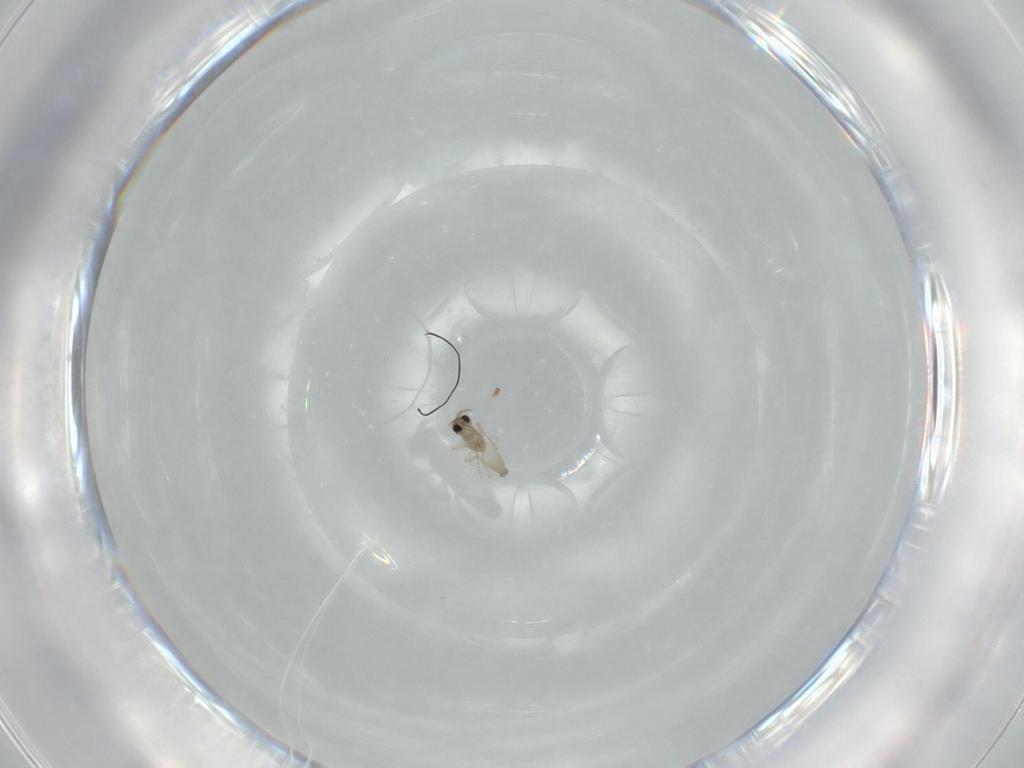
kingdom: Animalia
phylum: Arthropoda
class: Insecta
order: Diptera
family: Cecidomyiidae
